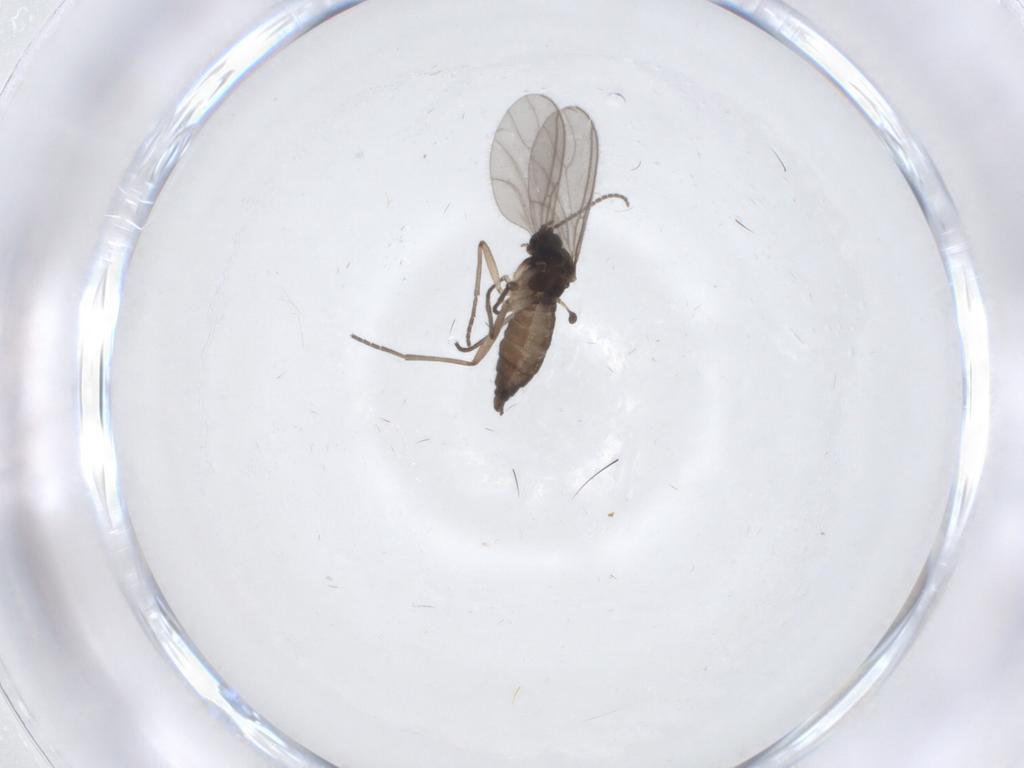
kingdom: Animalia
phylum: Arthropoda
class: Insecta
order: Diptera
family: Sciaridae
